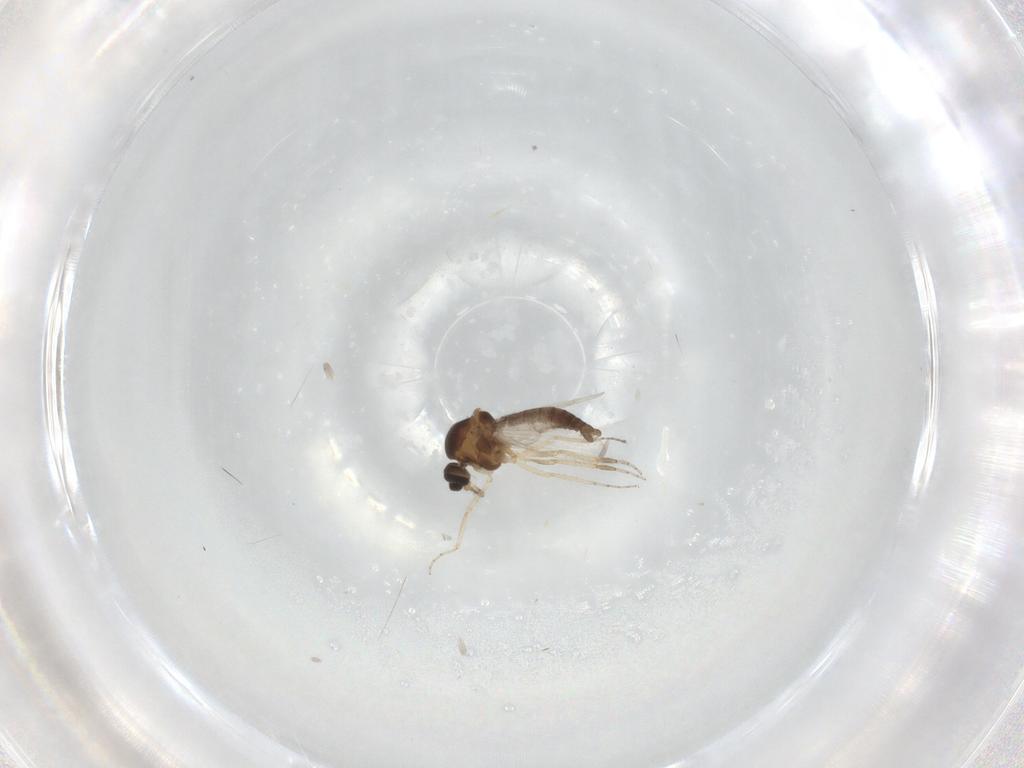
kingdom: Animalia
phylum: Arthropoda
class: Insecta
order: Diptera
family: Ceratopogonidae
